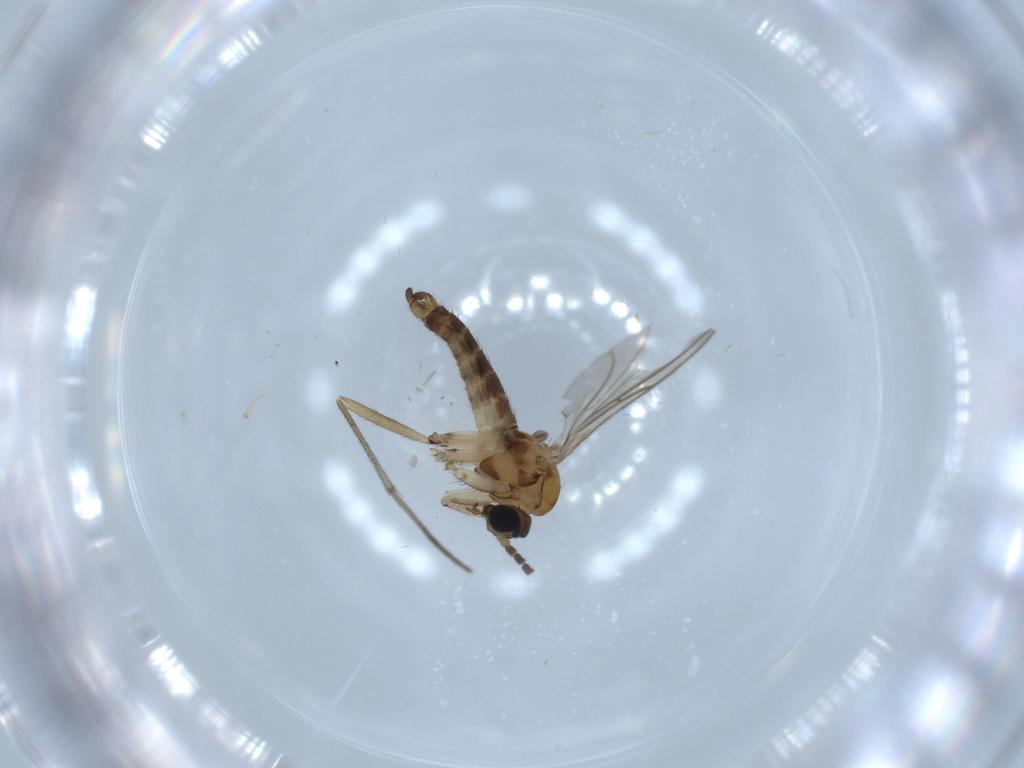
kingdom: Animalia
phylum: Arthropoda
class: Insecta
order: Diptera
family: Sciaridae
